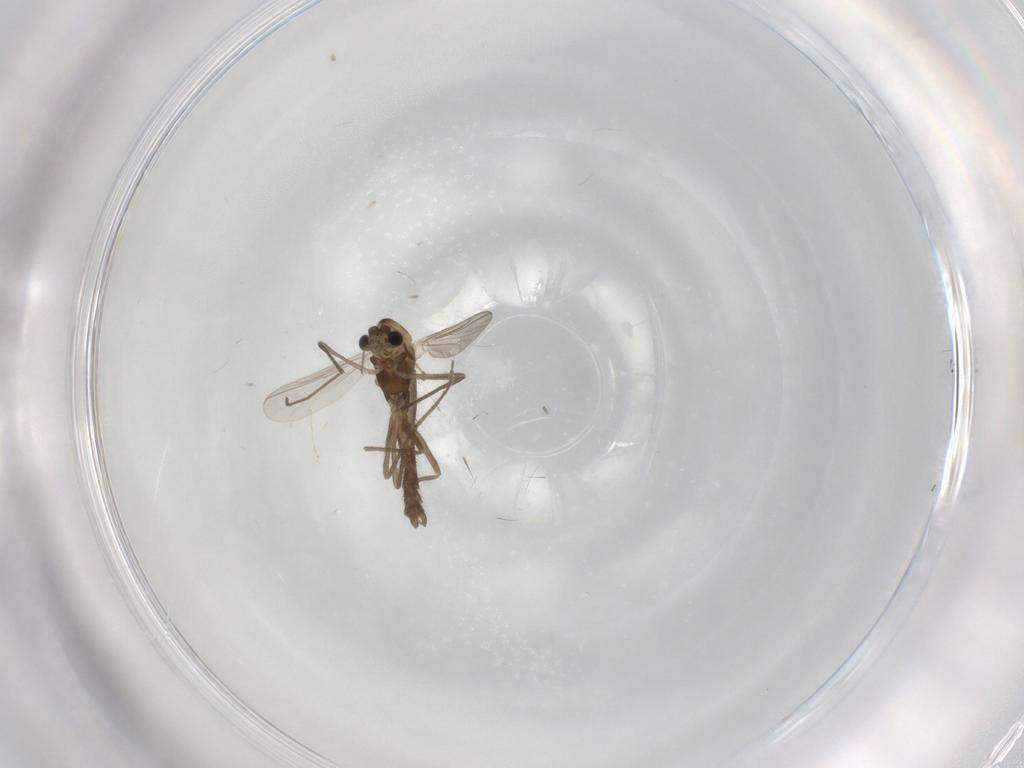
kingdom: Animalia
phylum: Arthropoda
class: Insecta
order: Diptera
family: Chironomidae
